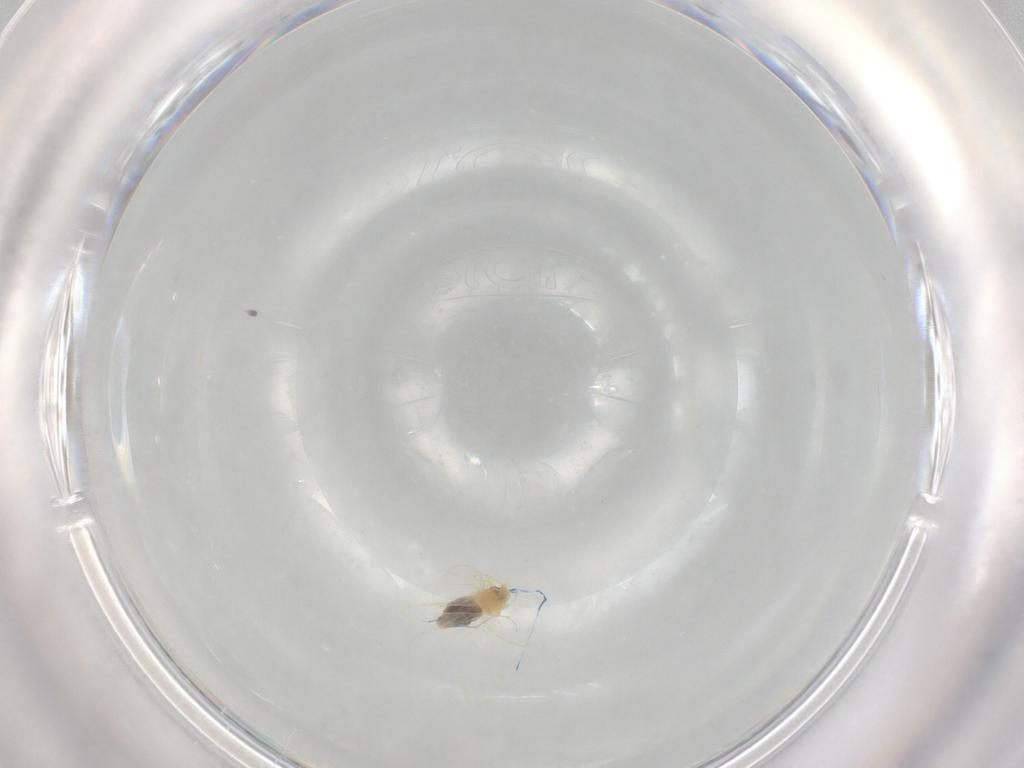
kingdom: Animalia
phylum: Arthropoda
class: Insecta
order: Hemiptera
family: Aleyrodidae
